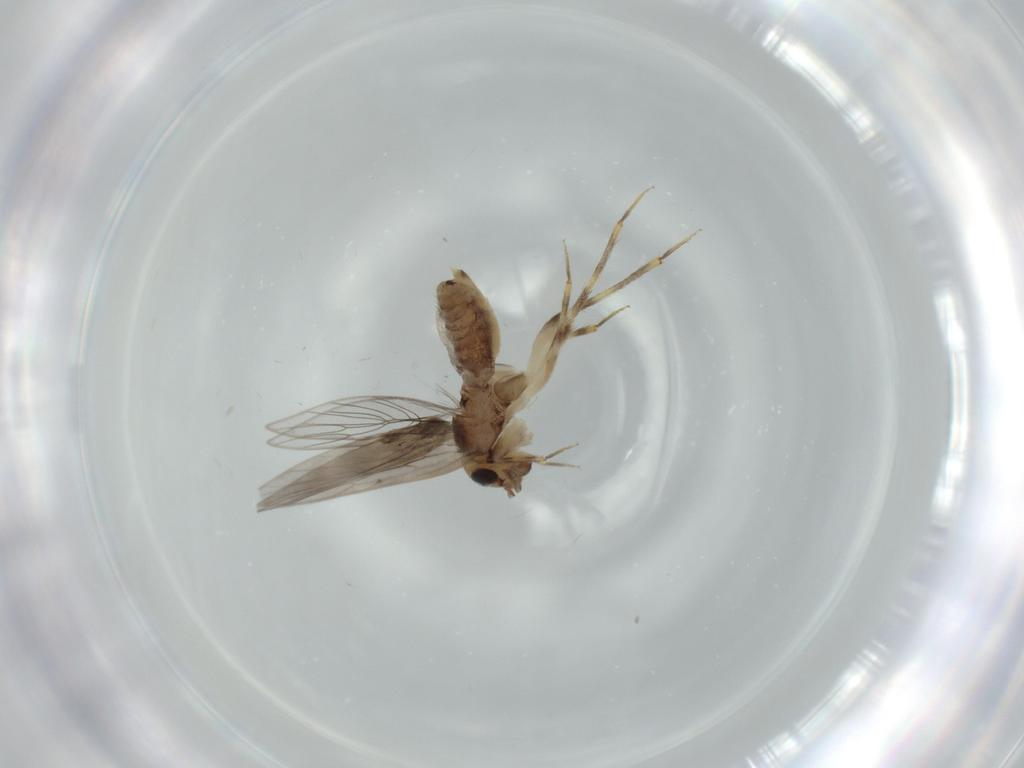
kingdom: Animalia
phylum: Arthropoda
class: Insecta
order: Psocodea
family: Lepidopsocidae
